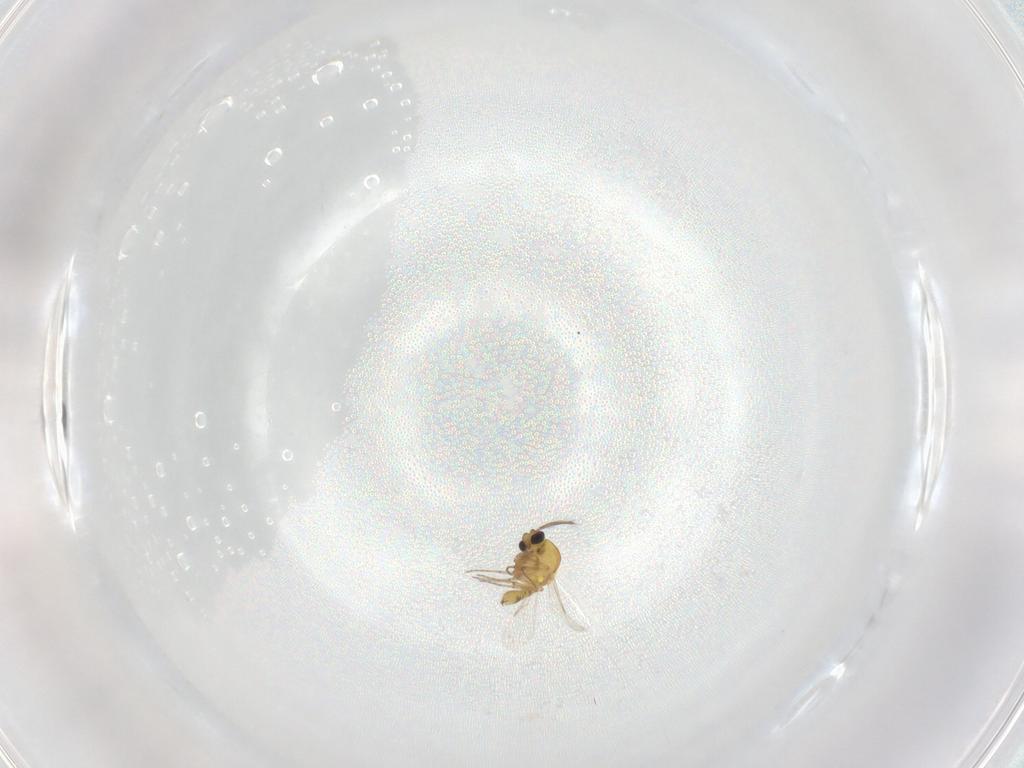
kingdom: Animalia
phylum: Arthropoda
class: Insecta
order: Diptera
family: Ceratopogonidae
